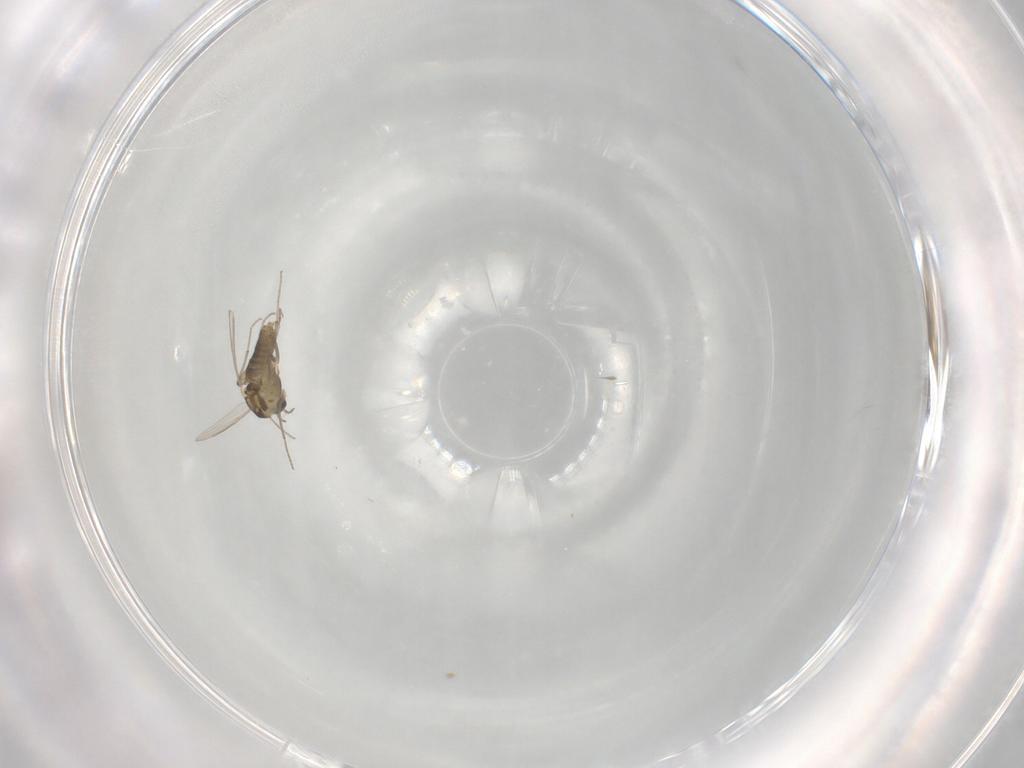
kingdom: Animalia
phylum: Arthropoda
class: Insecta
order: Diptera
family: Chironomidae
